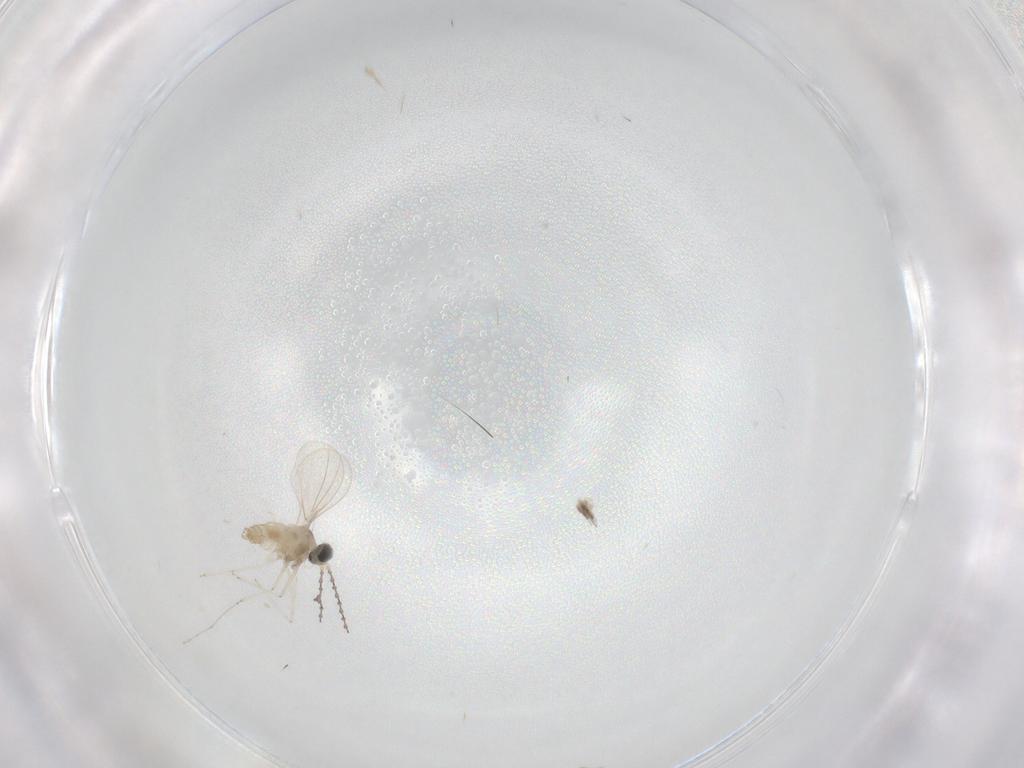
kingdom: Animalia
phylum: Arthropoda
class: Insecta
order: Diptera
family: Cecidomyiidae
